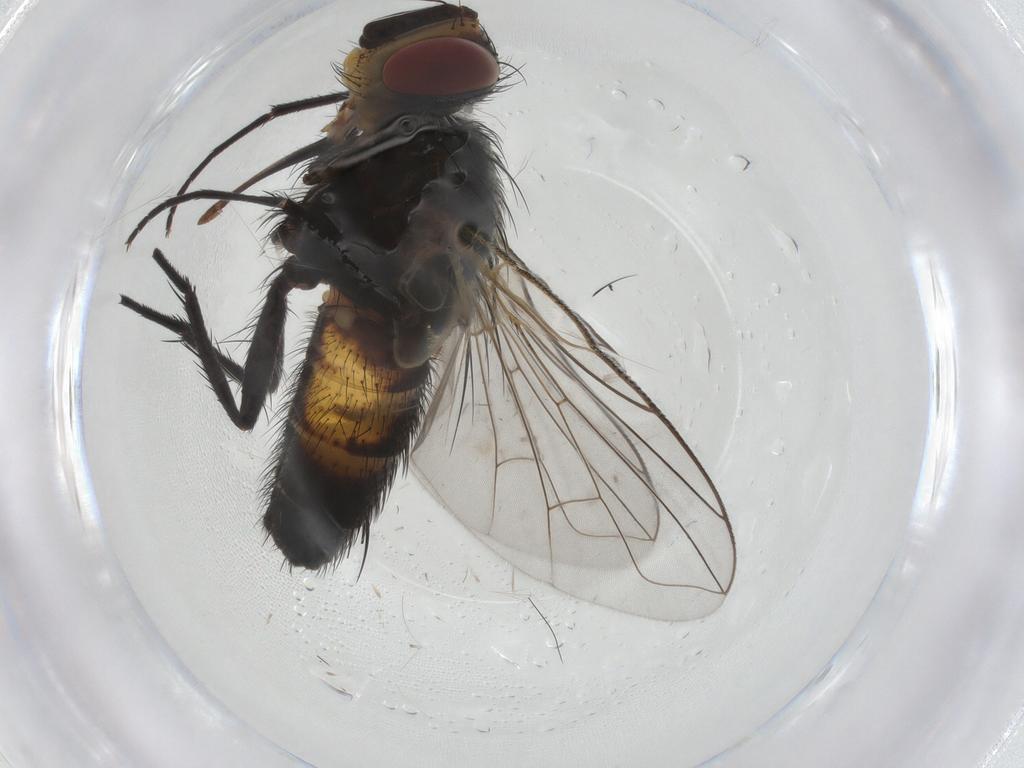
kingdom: Animalia
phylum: Arthropoda
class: Insecta
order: Diptera
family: Tachinidae
